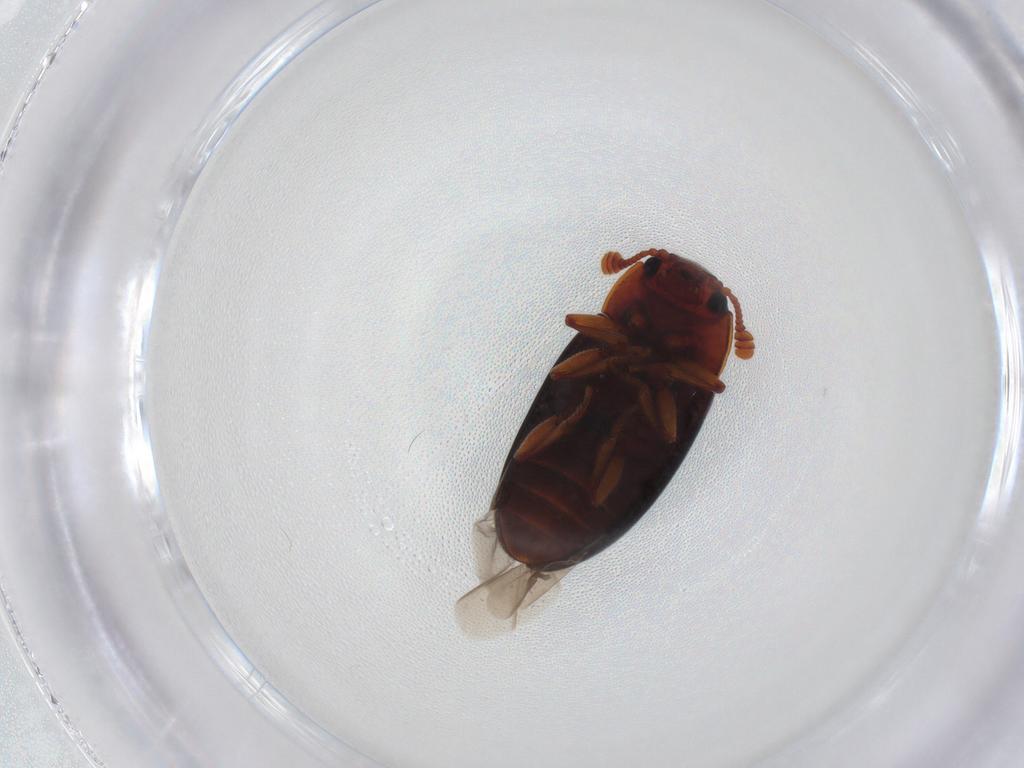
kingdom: Animalia
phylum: Arthropoda
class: Insecta
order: Coleoptera
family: Erotylidae
